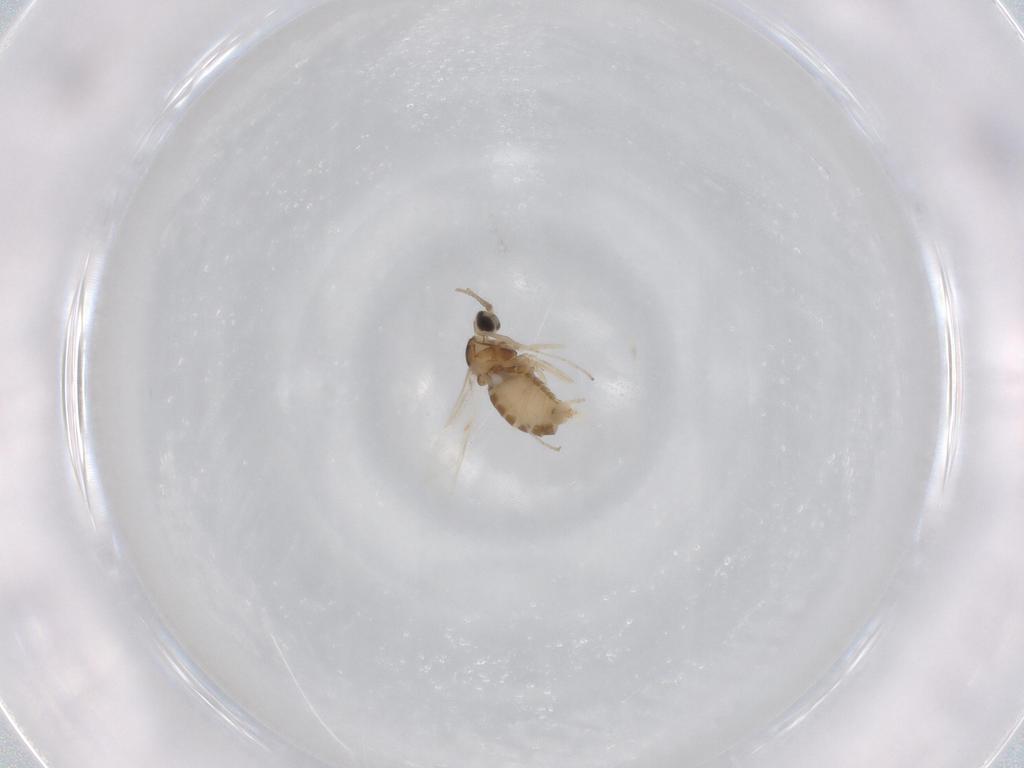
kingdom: Animalia
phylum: Arthropoda
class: Insecta
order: Diptera
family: Cecidomyiidae
